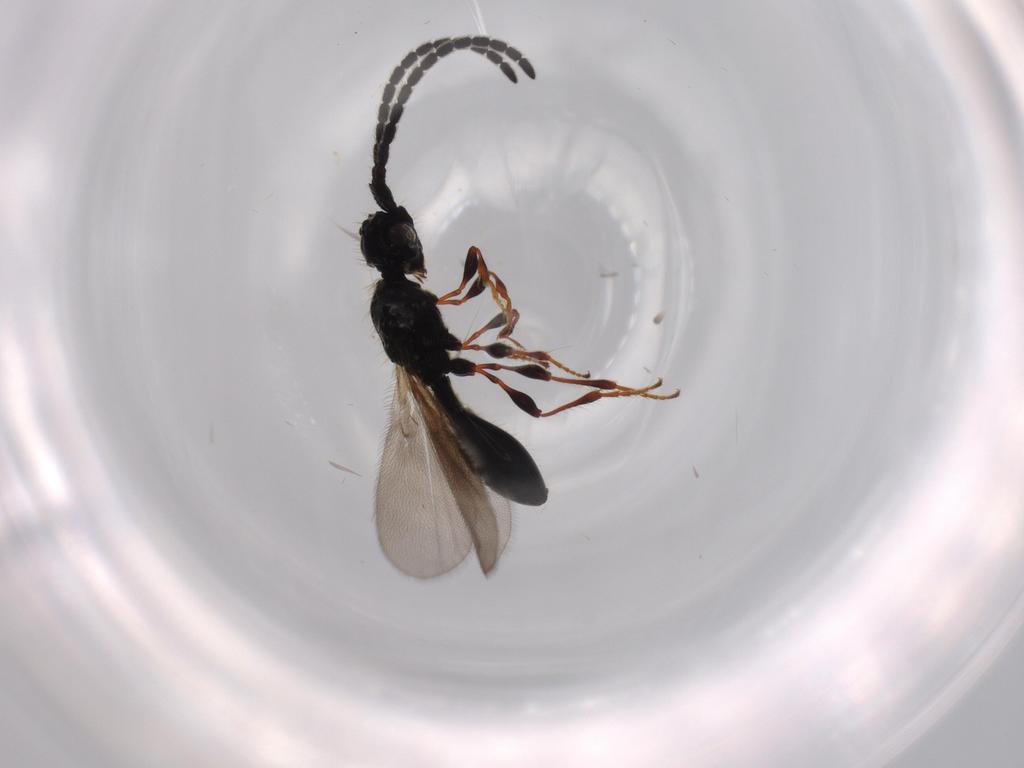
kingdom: Animalia
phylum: Arthropoda
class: Insecta
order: Hymenoptera
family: Diapriidae
